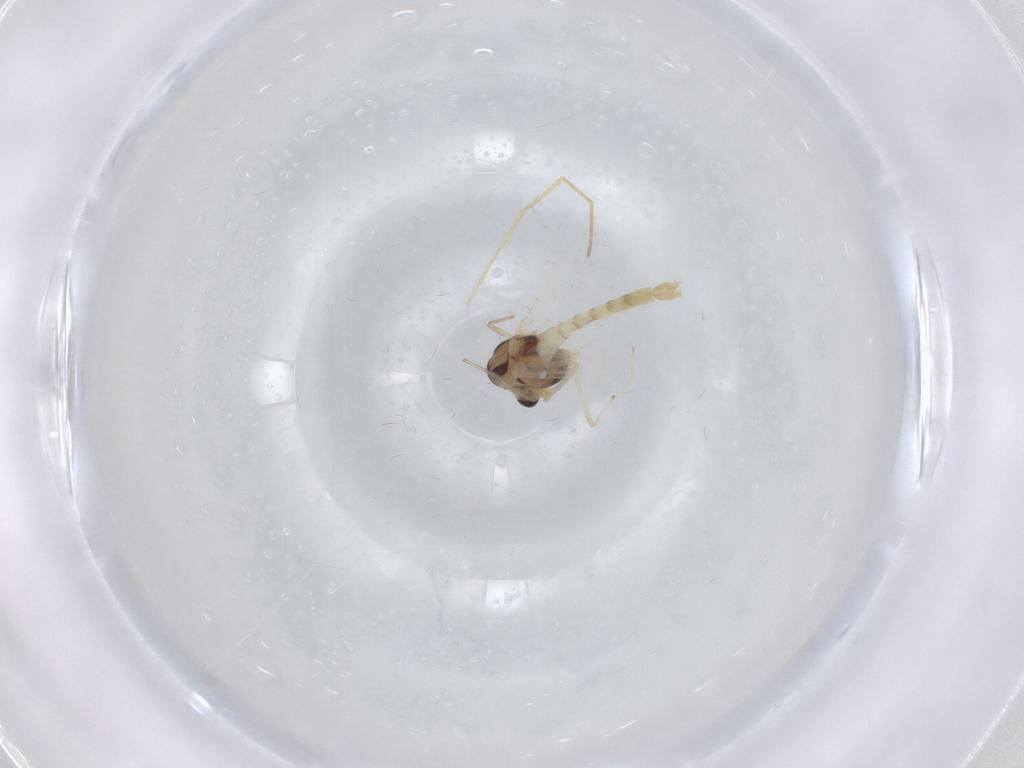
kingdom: Animalia
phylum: Arthropoda
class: Insecta
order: Diptera
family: Chironomidae
